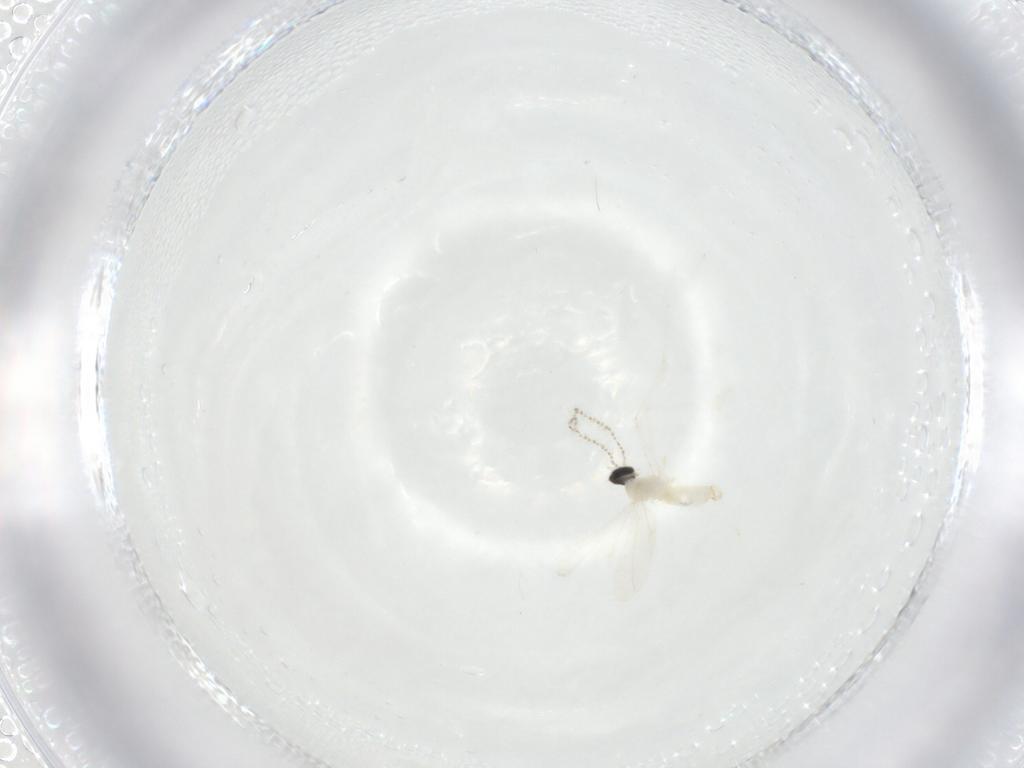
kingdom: Animalia
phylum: Arthropoda
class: Insecta
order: Diptera
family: Cecidomyiidae
